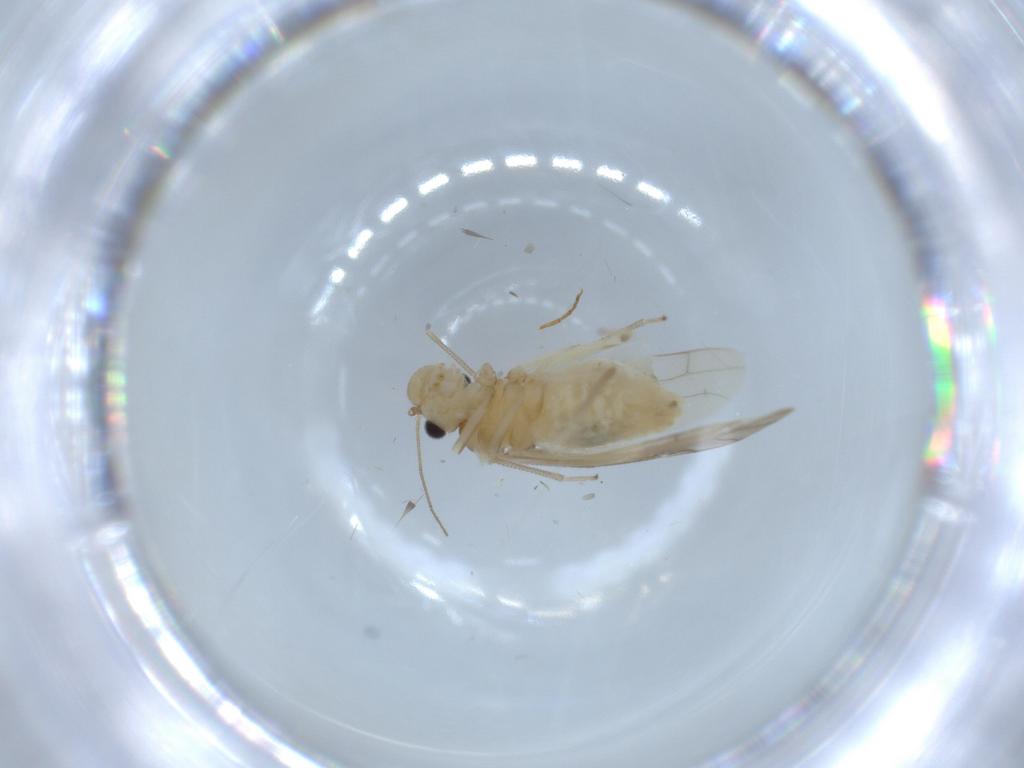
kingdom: Animalia
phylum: Arthropoda
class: Insecta
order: Psocodea
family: Caeciliusidae
